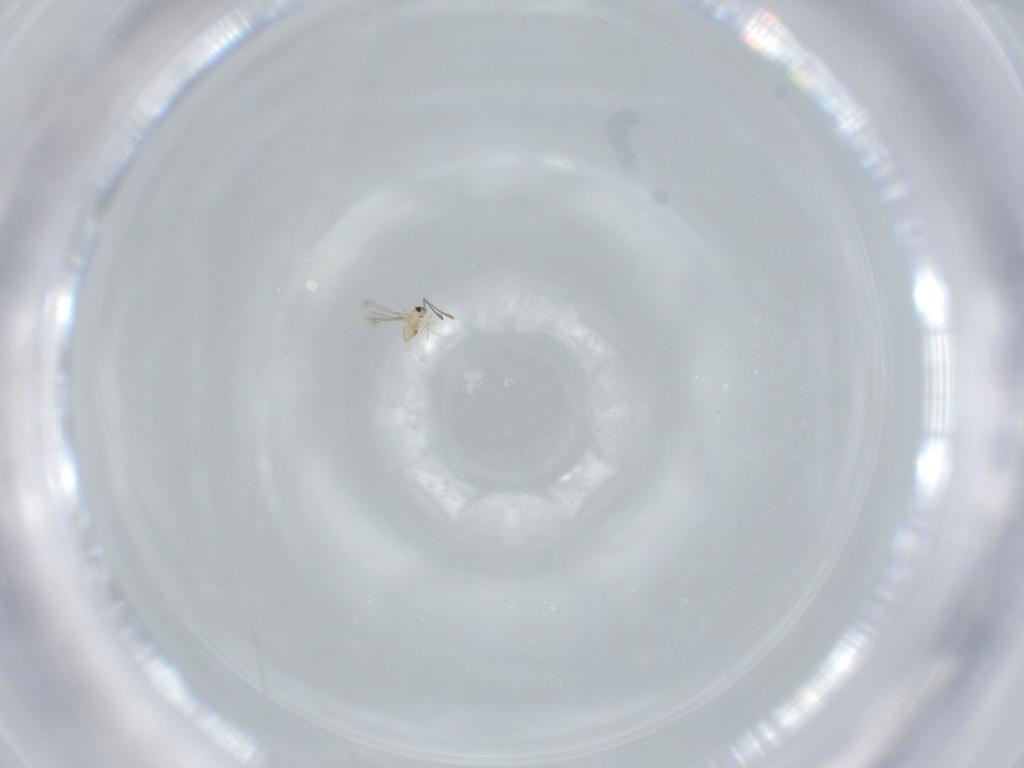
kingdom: Animalia
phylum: Arthropoda
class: Insecta
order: Hymenoptera
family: Mymaridae
